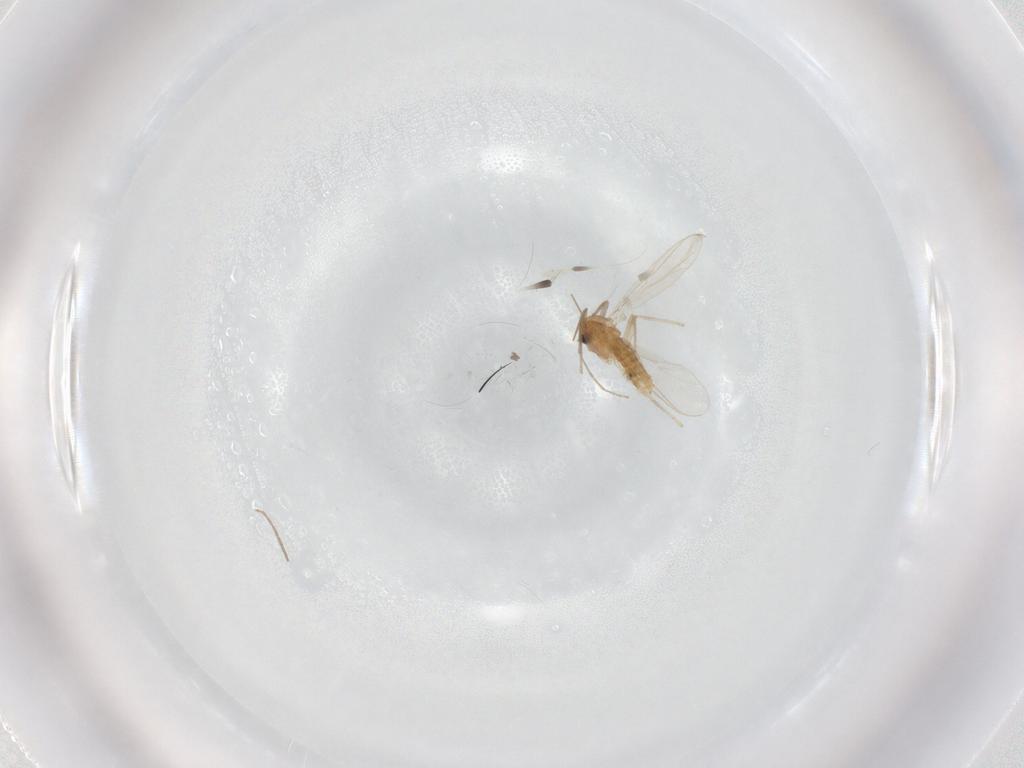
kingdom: Animalia
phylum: Arthropoda
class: Insecta
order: Diptera
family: Chironomidae
